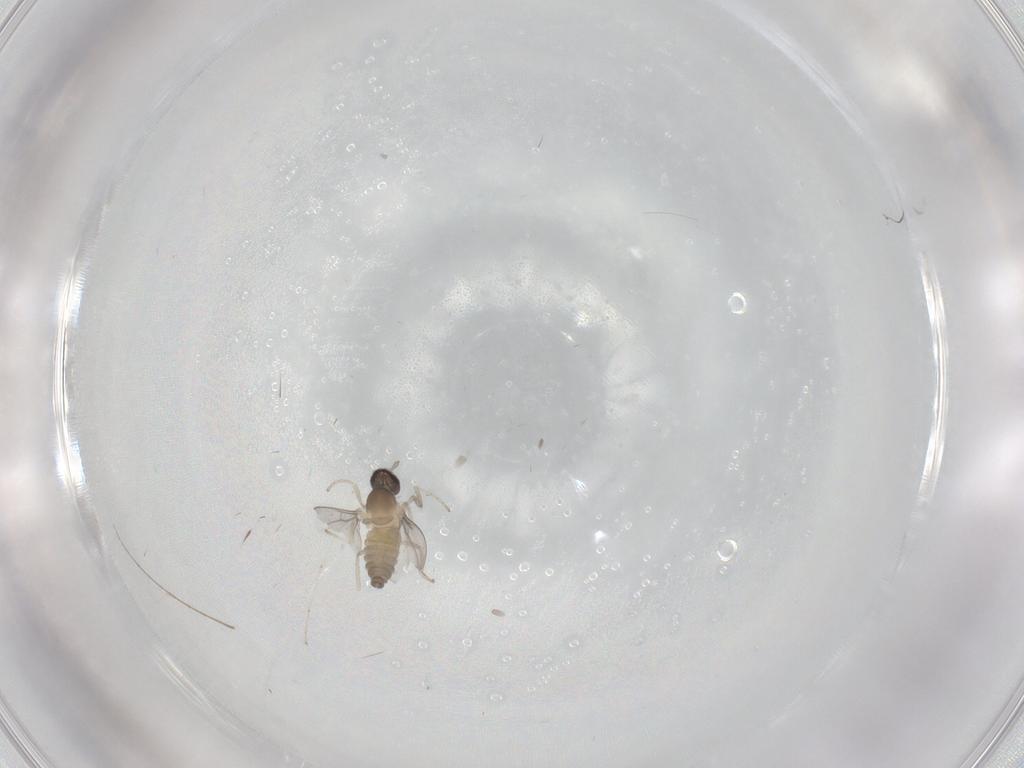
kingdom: Animalia
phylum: Arthropoda
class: Insecta
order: Diptera
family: Cecidomyiidae
